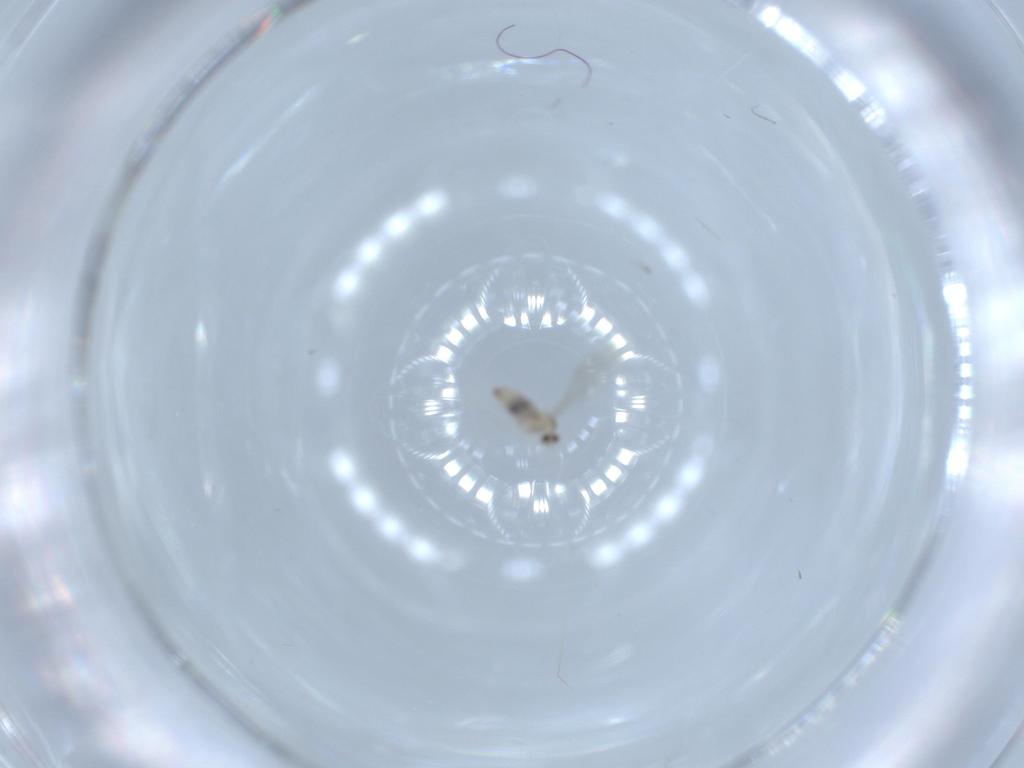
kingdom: Animalia
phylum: Arthropoda
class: Insecta
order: Diptera
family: Cecidomyiidae
